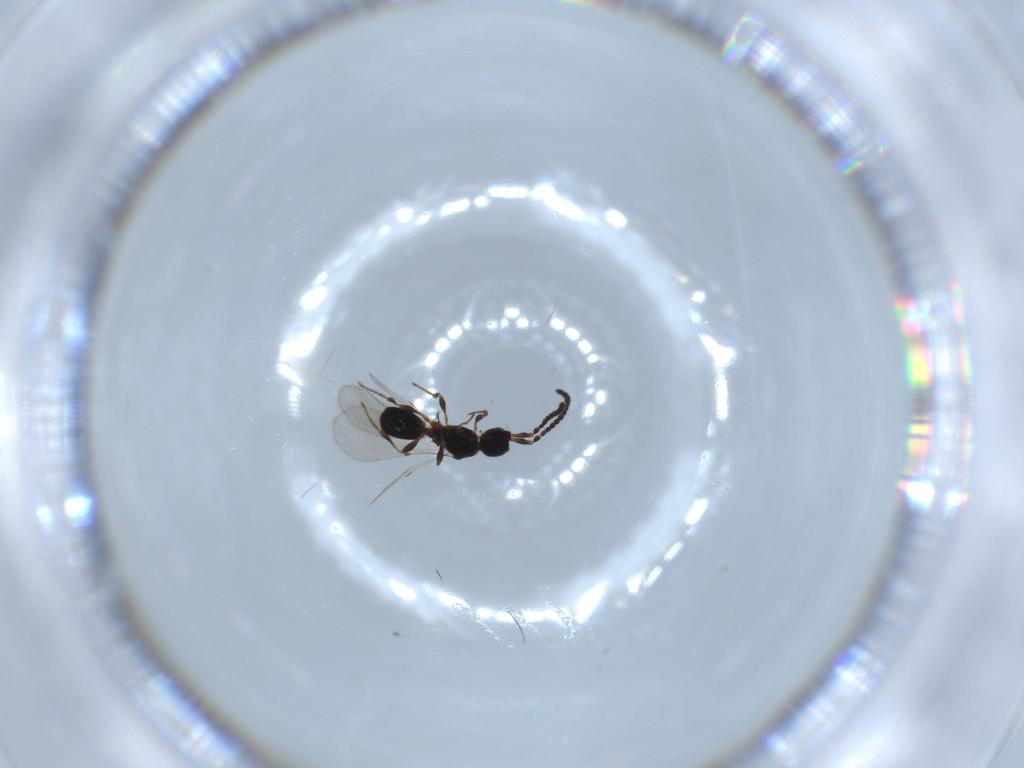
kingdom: Animalia
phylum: Arthropoda
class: Insecta
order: Hymenoptera
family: Diapriidae
